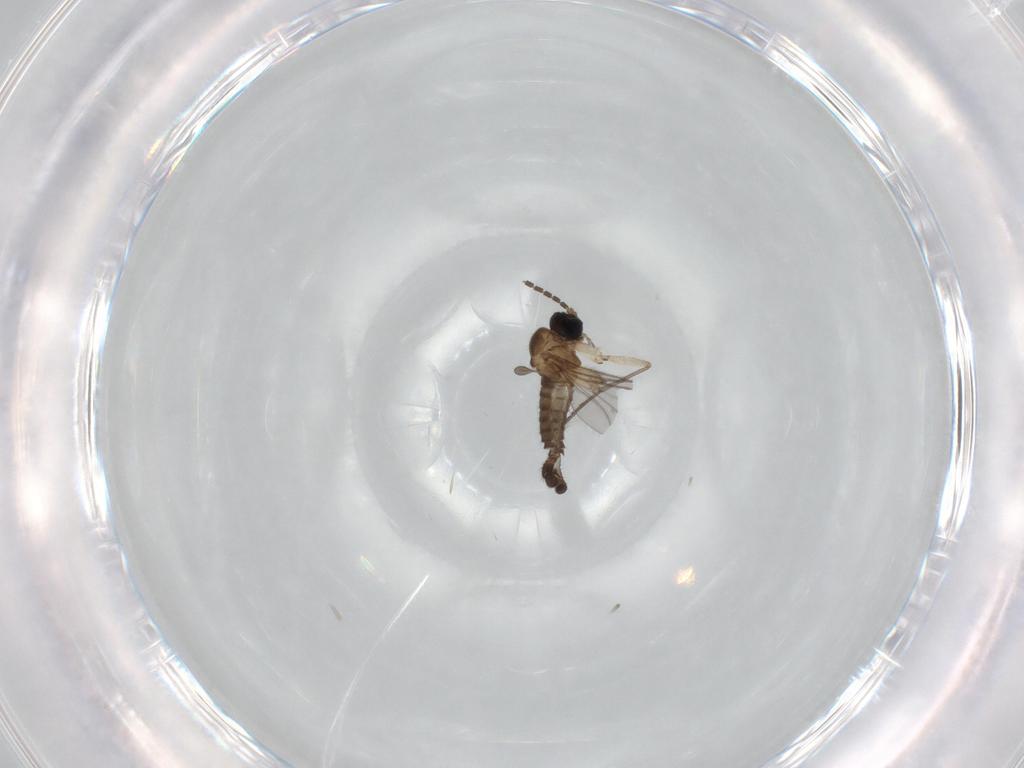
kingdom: Animalia
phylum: Arthropoda
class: Insecta
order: Diptera
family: Sciaridae
